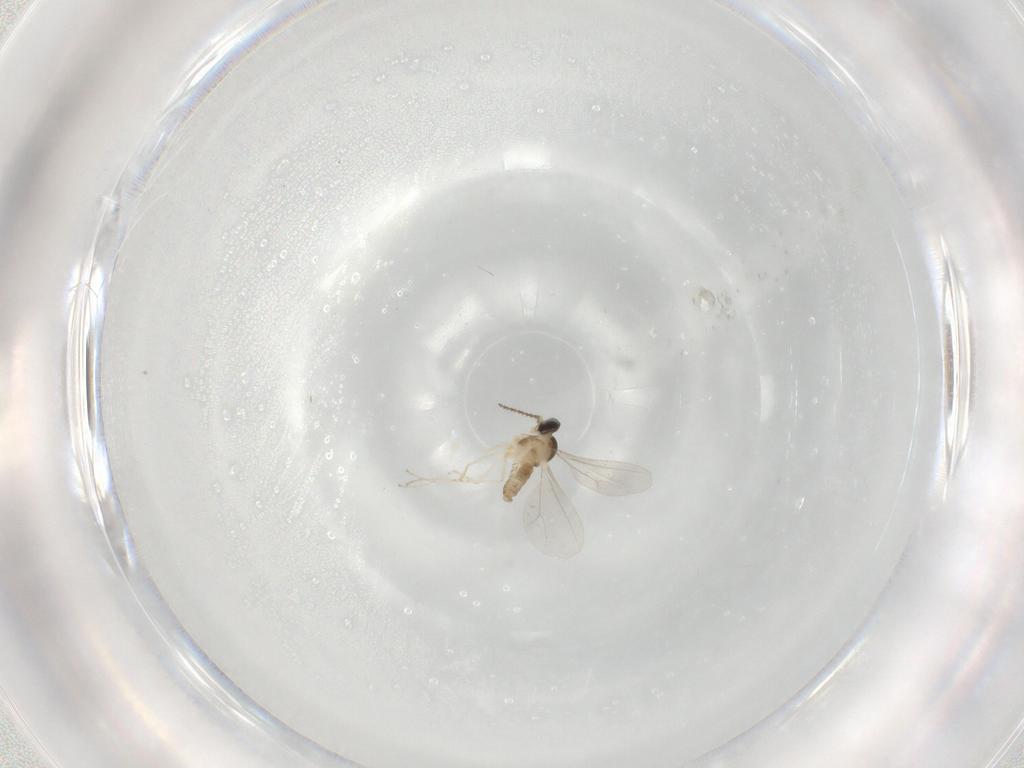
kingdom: Animalia
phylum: Arthropoda
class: Insecta
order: Diptera
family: Cecidomyiidae
